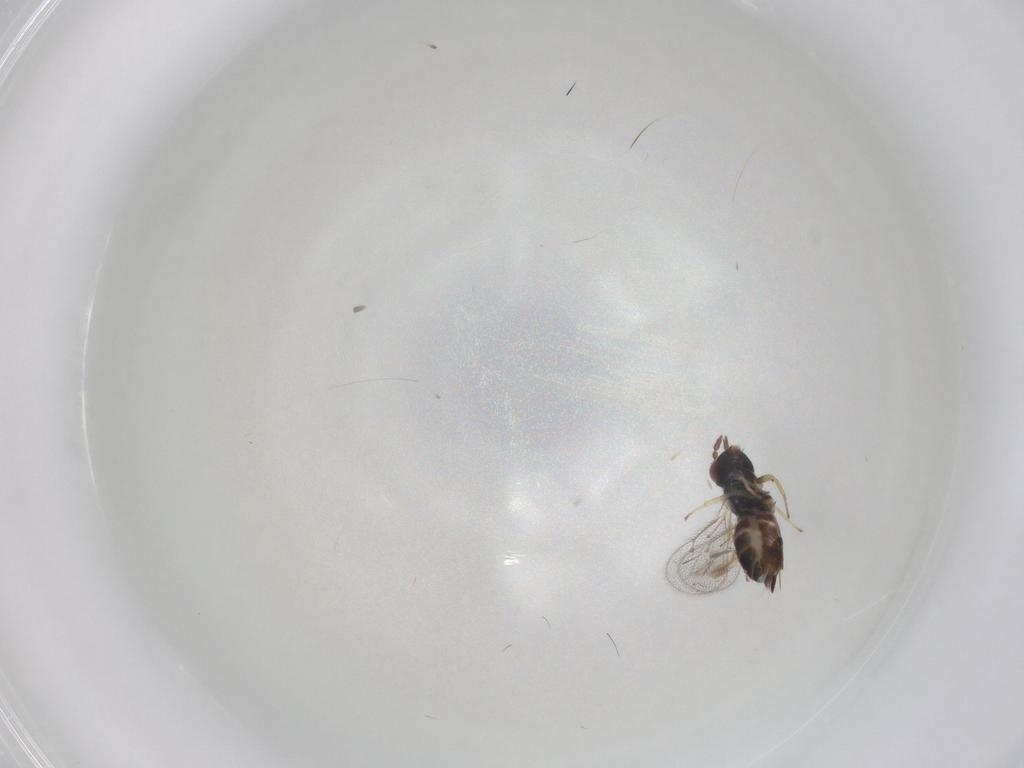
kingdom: Animalia
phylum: Arthropoda
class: Insecta
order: Hymenoptera
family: Eulophidae
